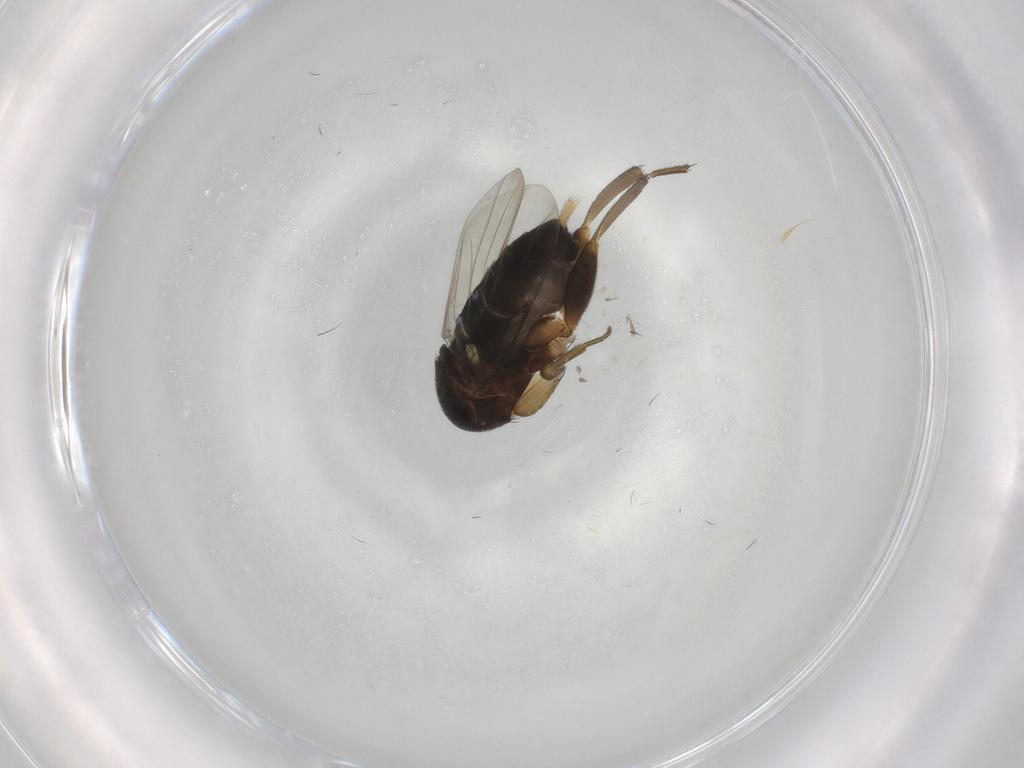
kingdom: Animalia
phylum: Arthropoda
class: Insecta
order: Diptera
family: Phoridae
